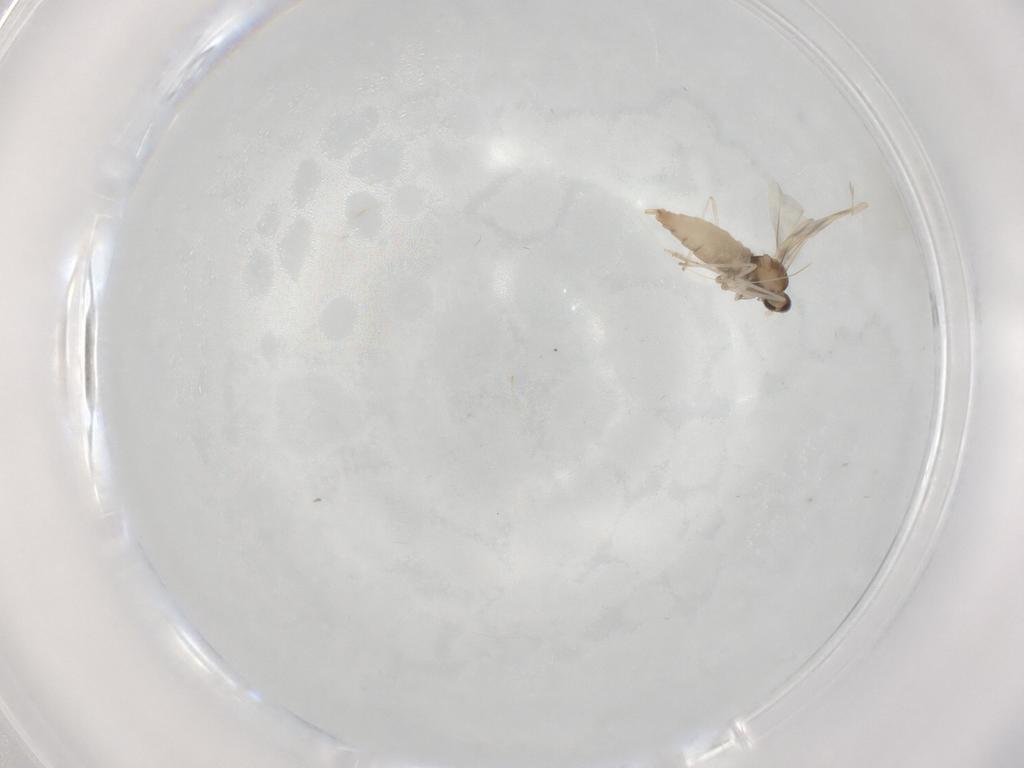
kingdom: Animalia
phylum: Arthropoda
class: Insecta
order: Diptera
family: Cecidomyiidae
